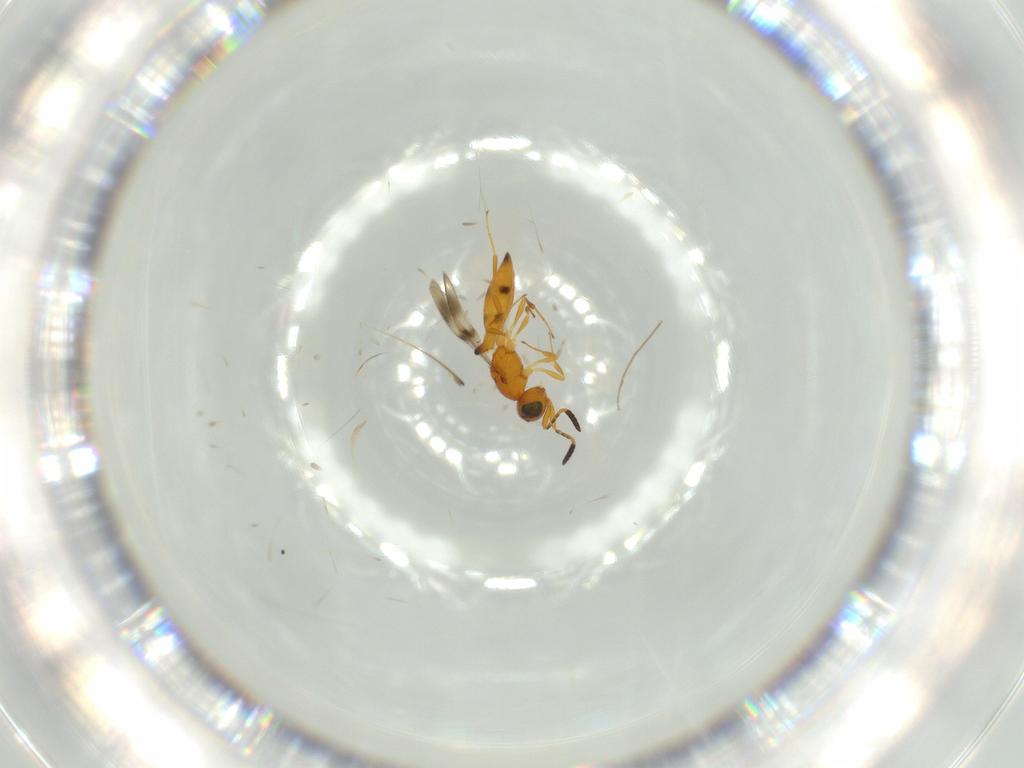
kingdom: Animalia
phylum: Arthropoda
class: Insecta
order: Hymenoptera
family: Scelionidae
